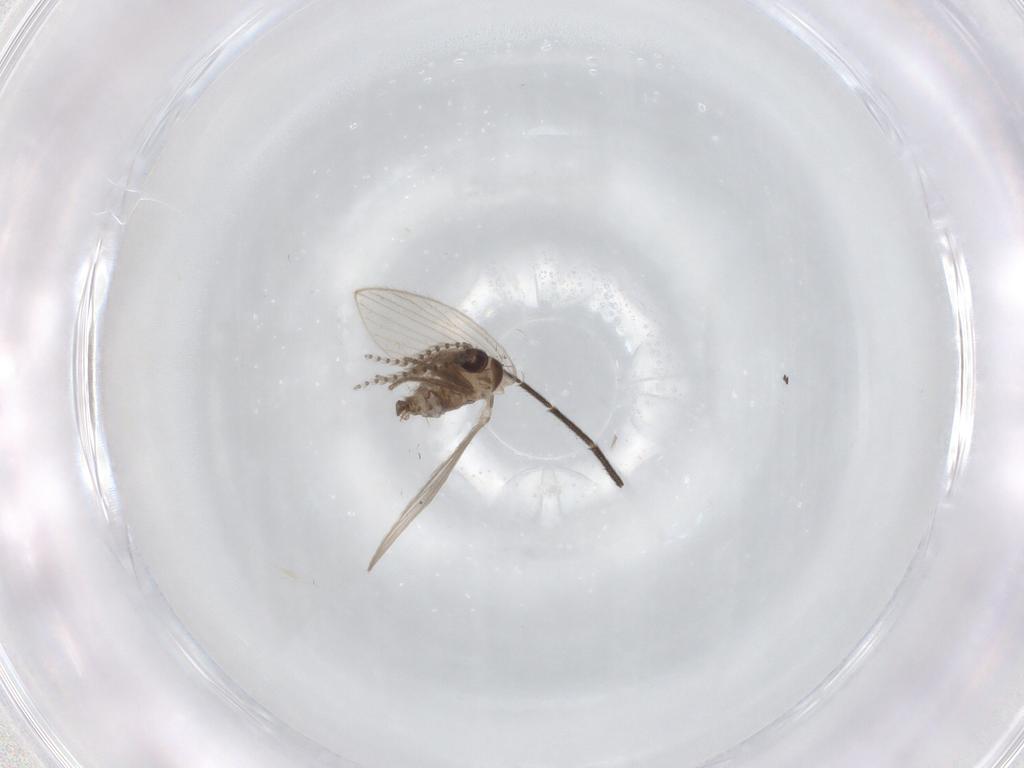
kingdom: Animalia
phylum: Arthropoda
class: Insecta
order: Diptera
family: Psychodidae
